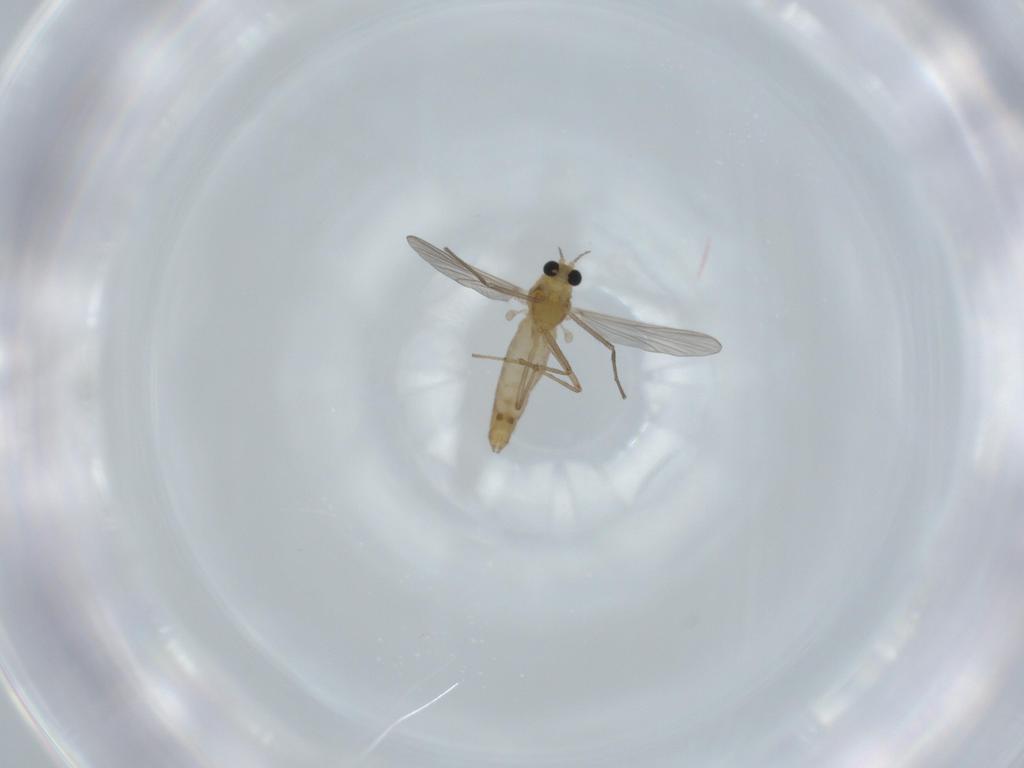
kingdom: Animalia
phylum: Arthropoda
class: Insecta
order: Diptera
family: Chironomidae
